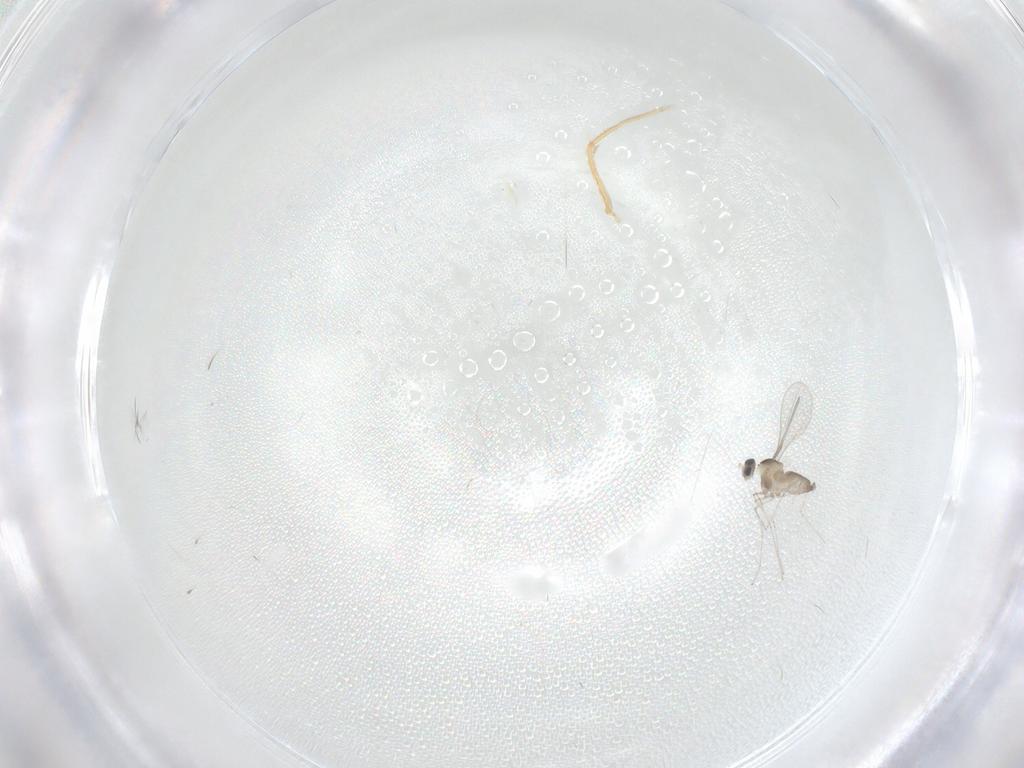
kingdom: Animalia
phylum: Arthropoda
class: Insecta
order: Diptera
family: Cecidomyiidae
